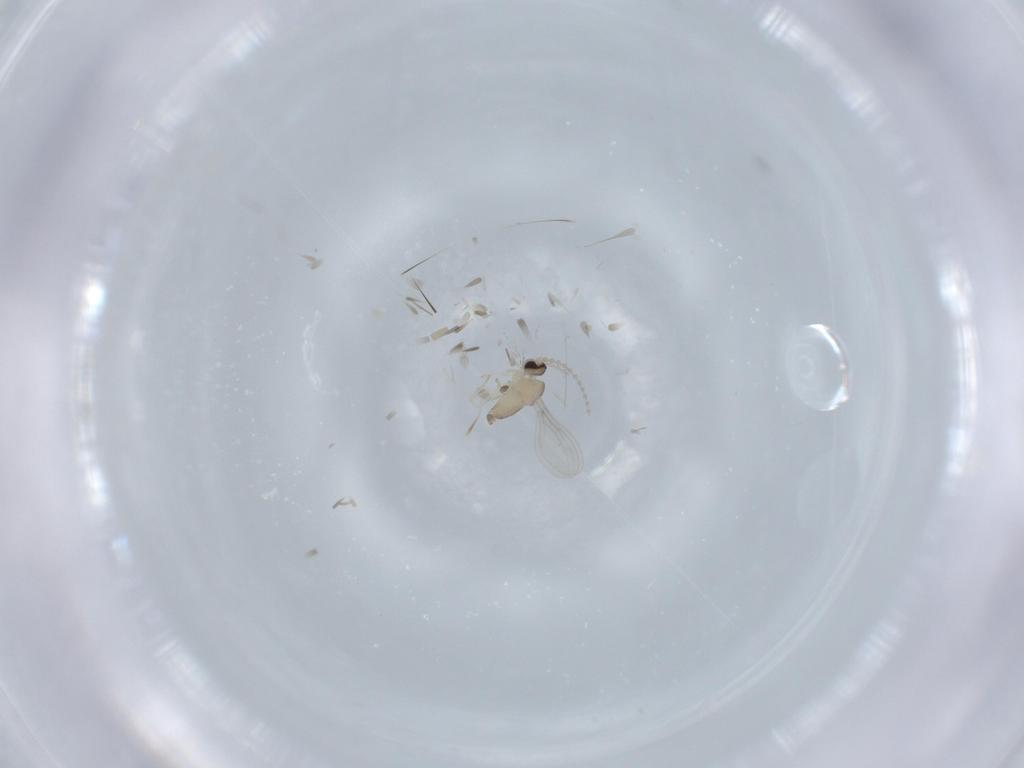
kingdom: Animalia
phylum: Arthropoda
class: Insecta
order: Diptera
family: Cecidomyiidae
